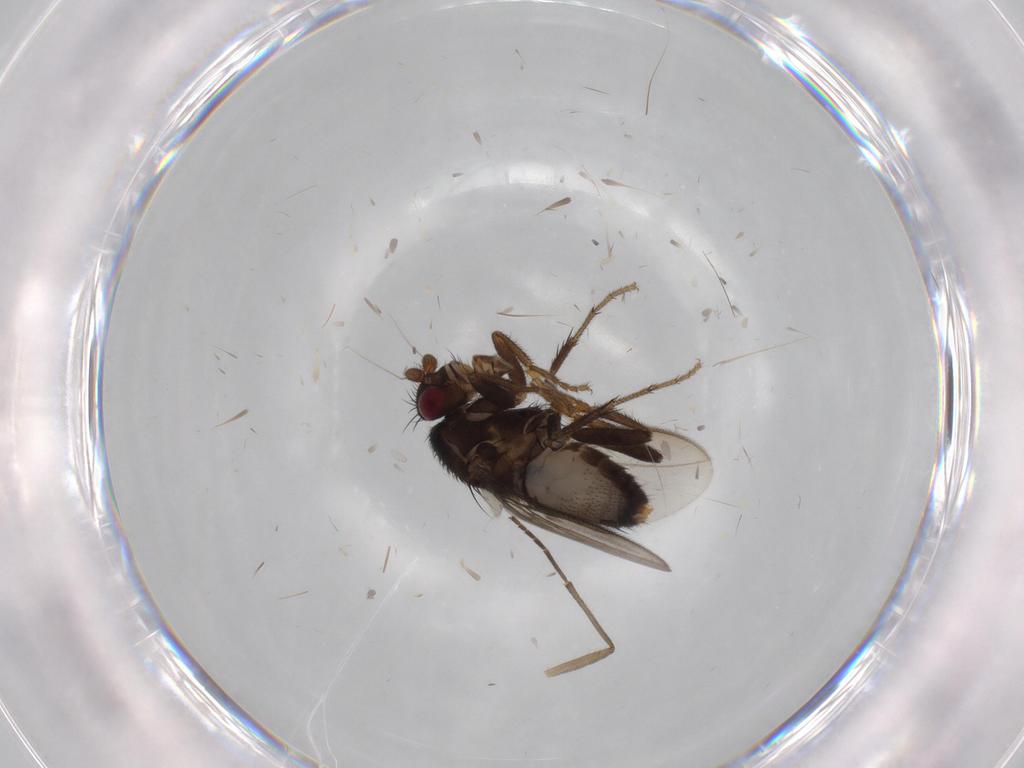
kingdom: Animalia
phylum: Arthropoda
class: Insecta
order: Diptera
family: Sphaeroceridae
